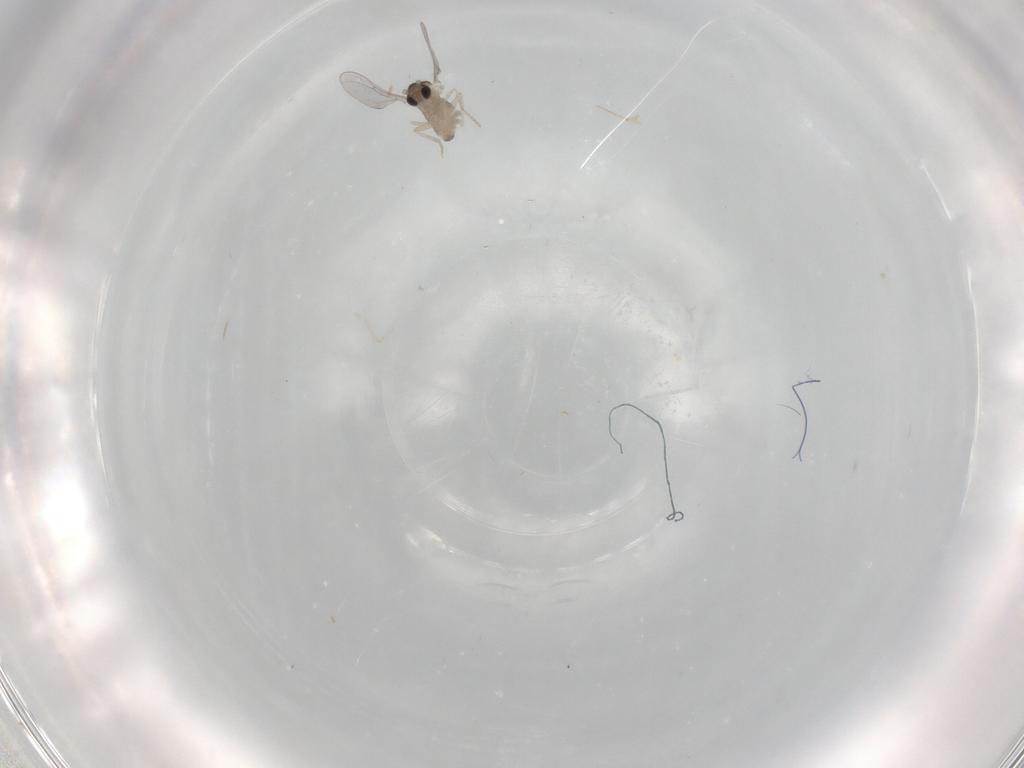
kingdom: Animalia
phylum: Arthropoda
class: Insecta
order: Diptera
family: Cecidomyiidae
